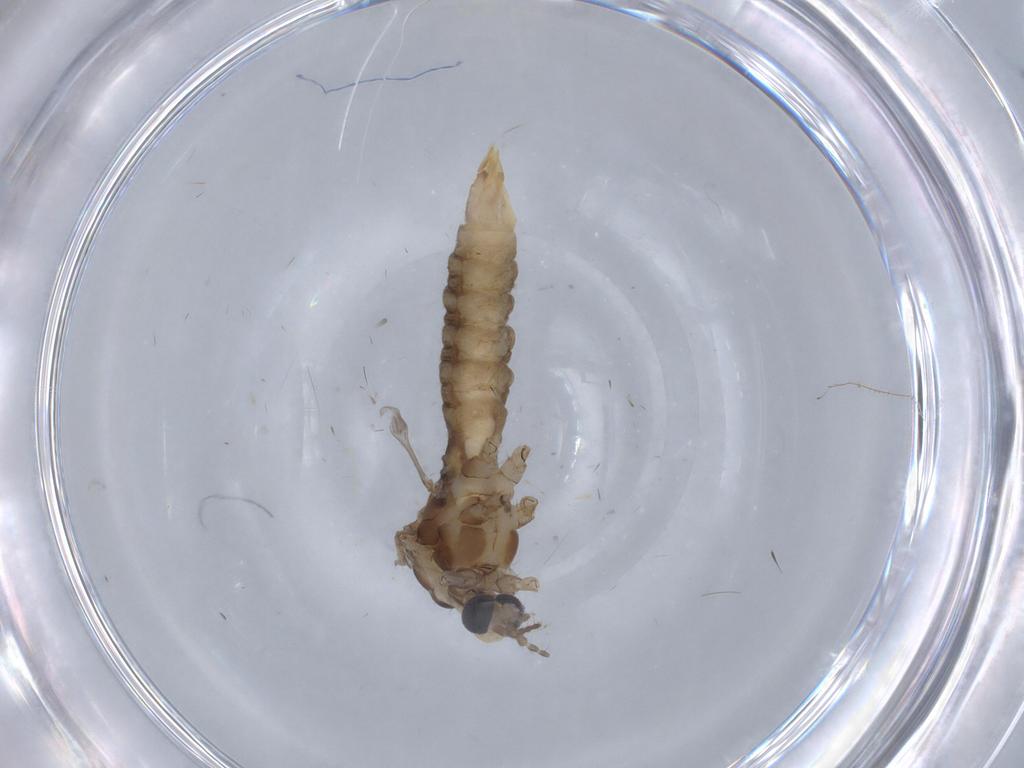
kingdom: Animalia
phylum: Arthropoda
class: Insecta
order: Diptera
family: Limoniidae
